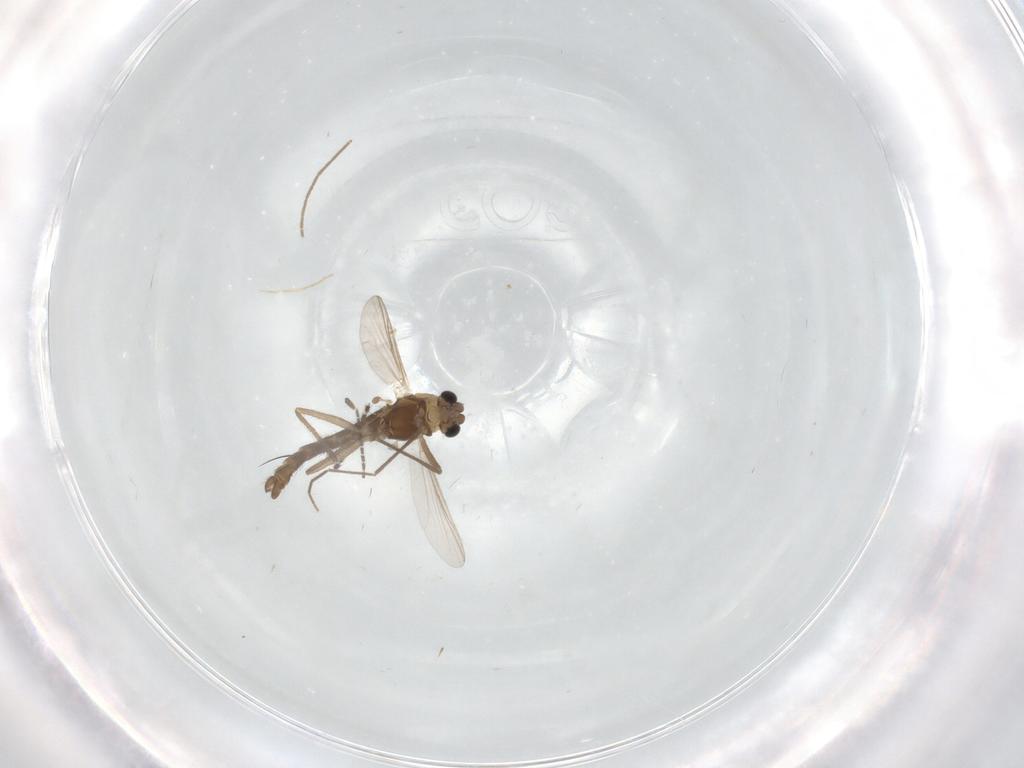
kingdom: Animalia
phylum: Arthropoda
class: Insecta
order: Diptera
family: Chironomidae
